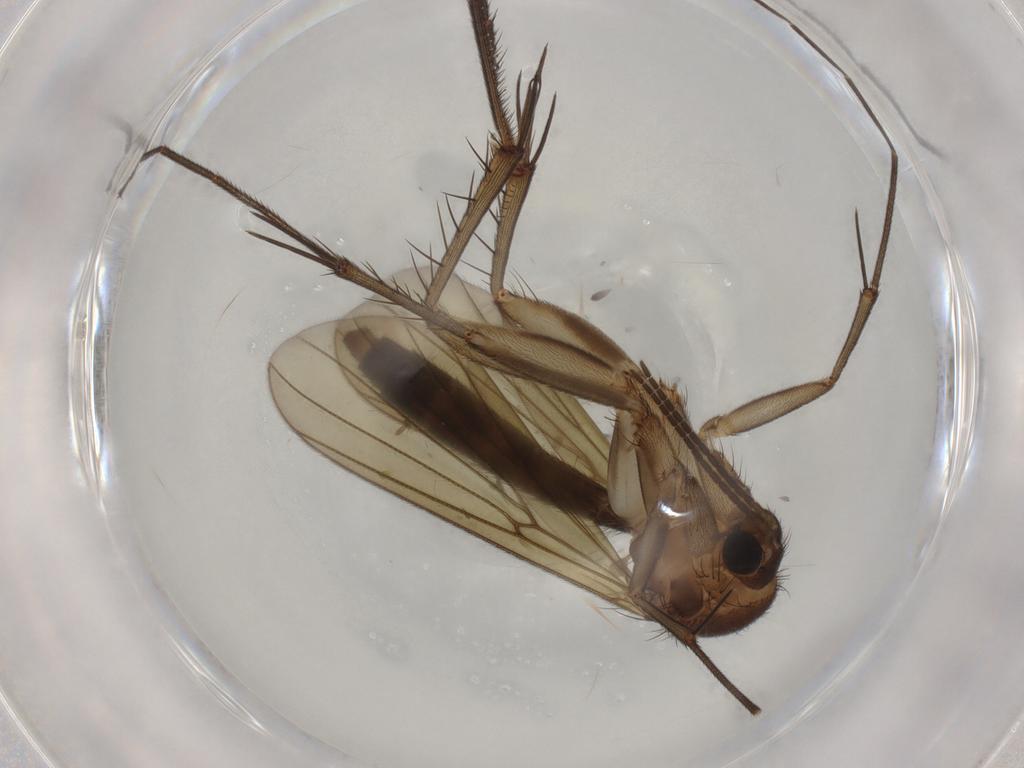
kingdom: Animalia
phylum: Arthropoda
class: Insecta
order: Diptera
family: Mycetophilidae
